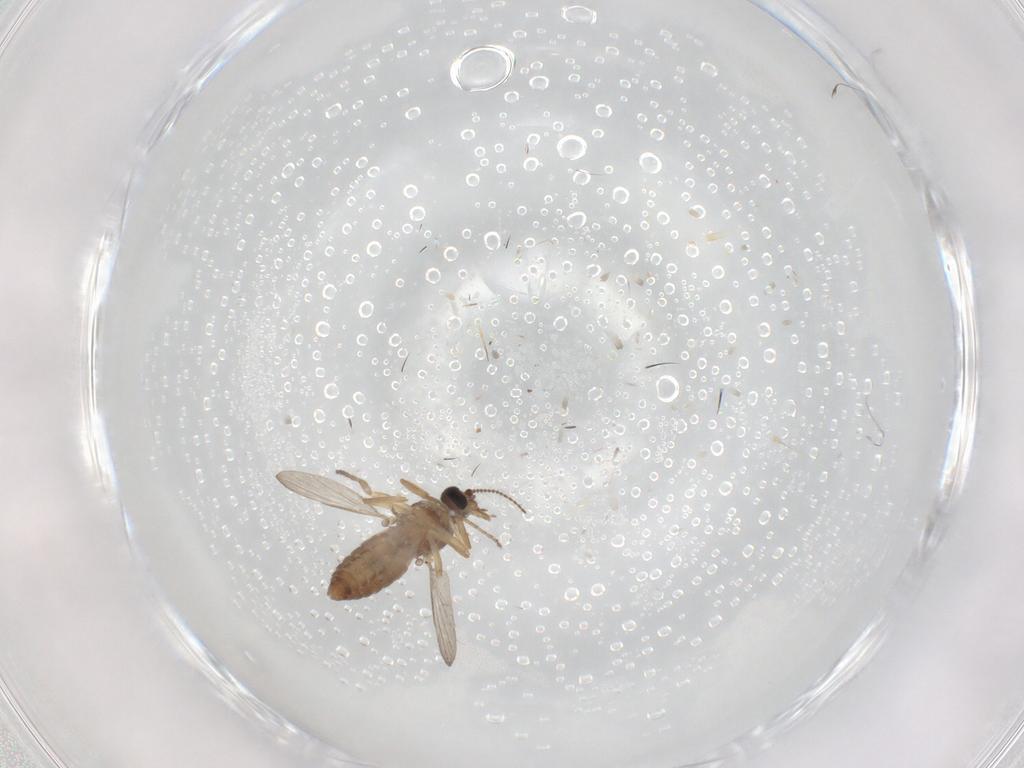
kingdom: Animalia
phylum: Arthropoda
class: Insecta
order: Diptera
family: Ceratopogonidae
